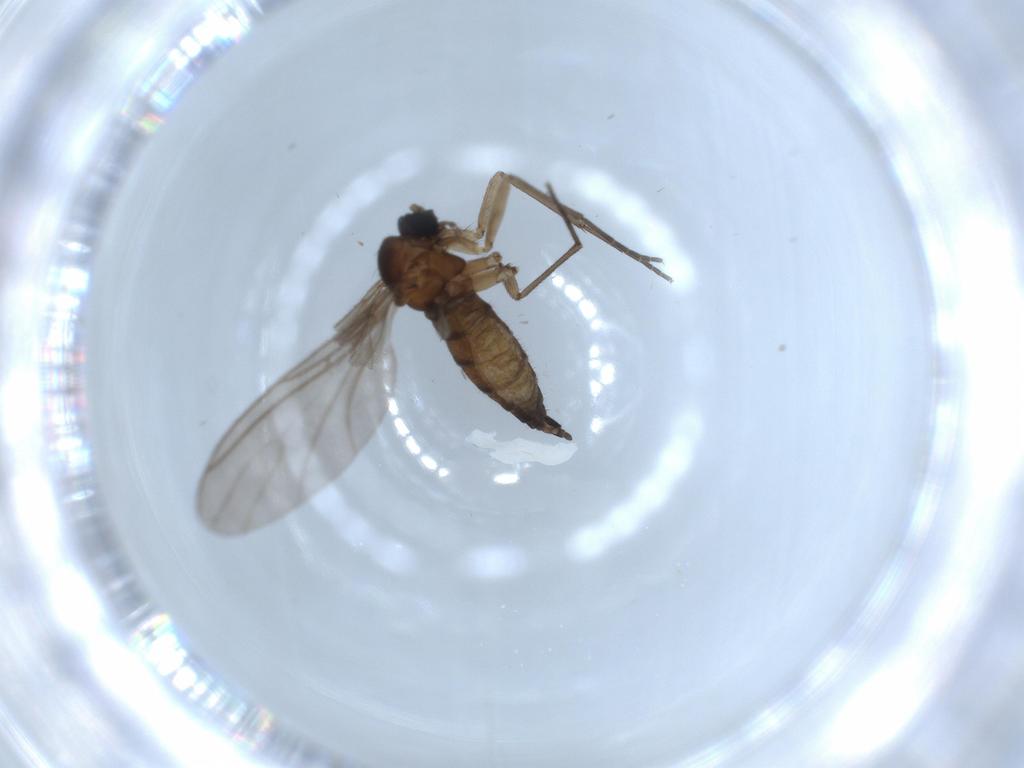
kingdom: Animalia
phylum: Arthropoda
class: Insecta
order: Diptera
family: Sciaridae
